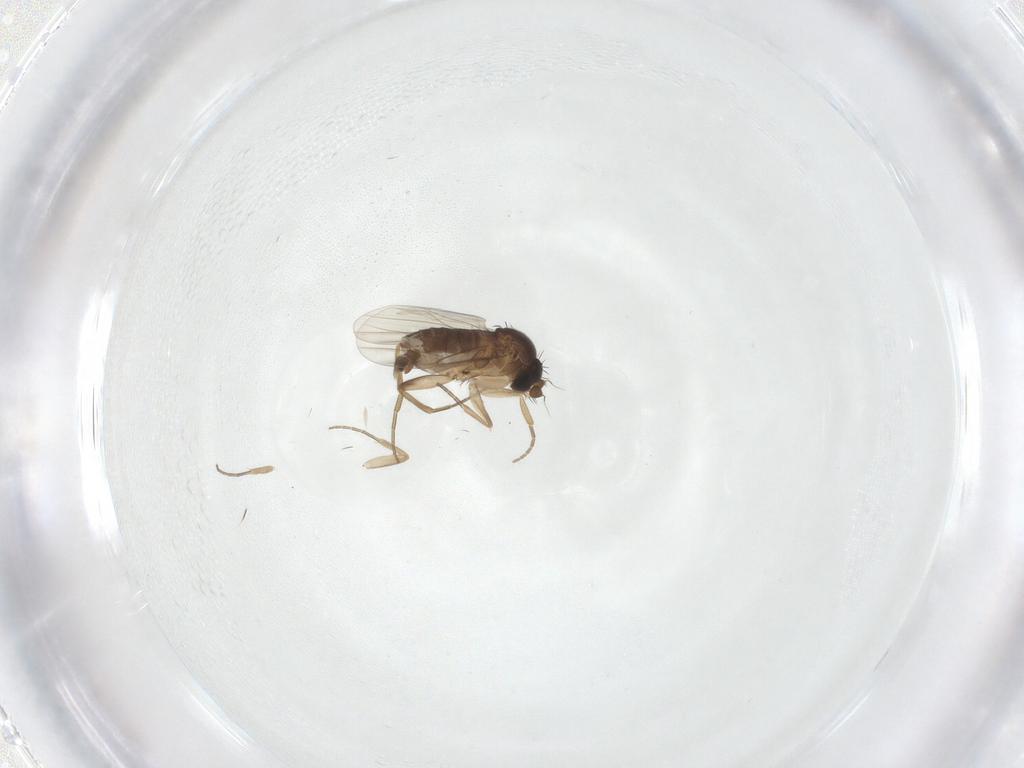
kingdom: Animalia
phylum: Arthropoda
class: Insecta
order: Diptera
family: Phoridae
